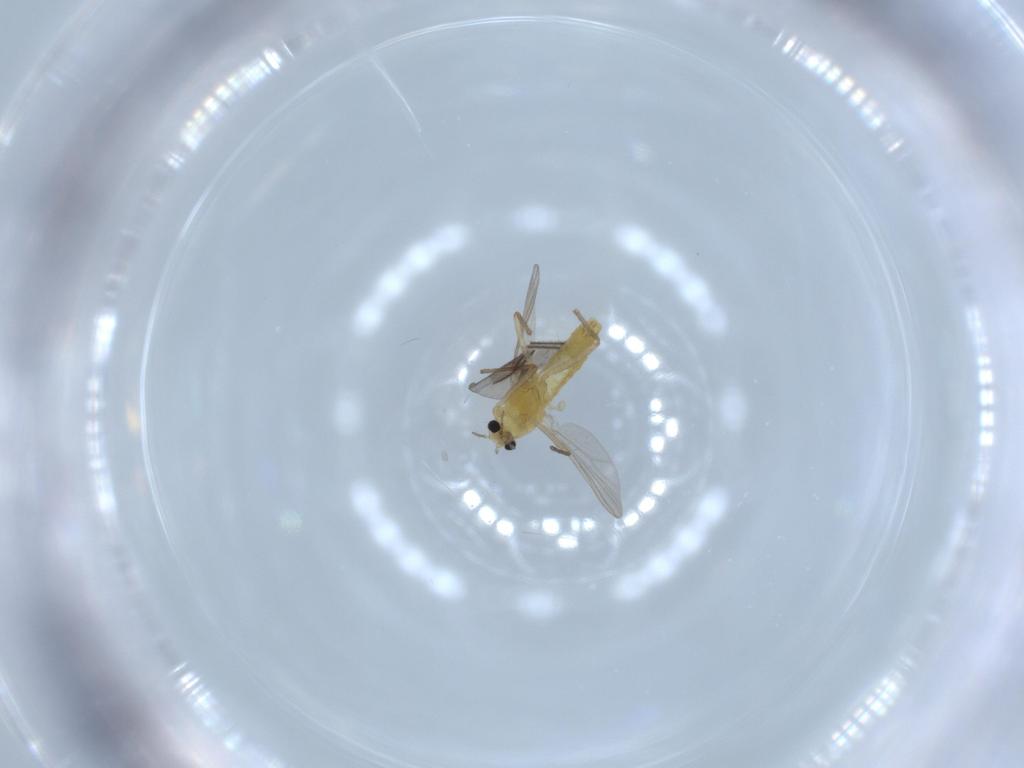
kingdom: Animalia
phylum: Arthropoda
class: Insecta
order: Diptera
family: Chironomidae
